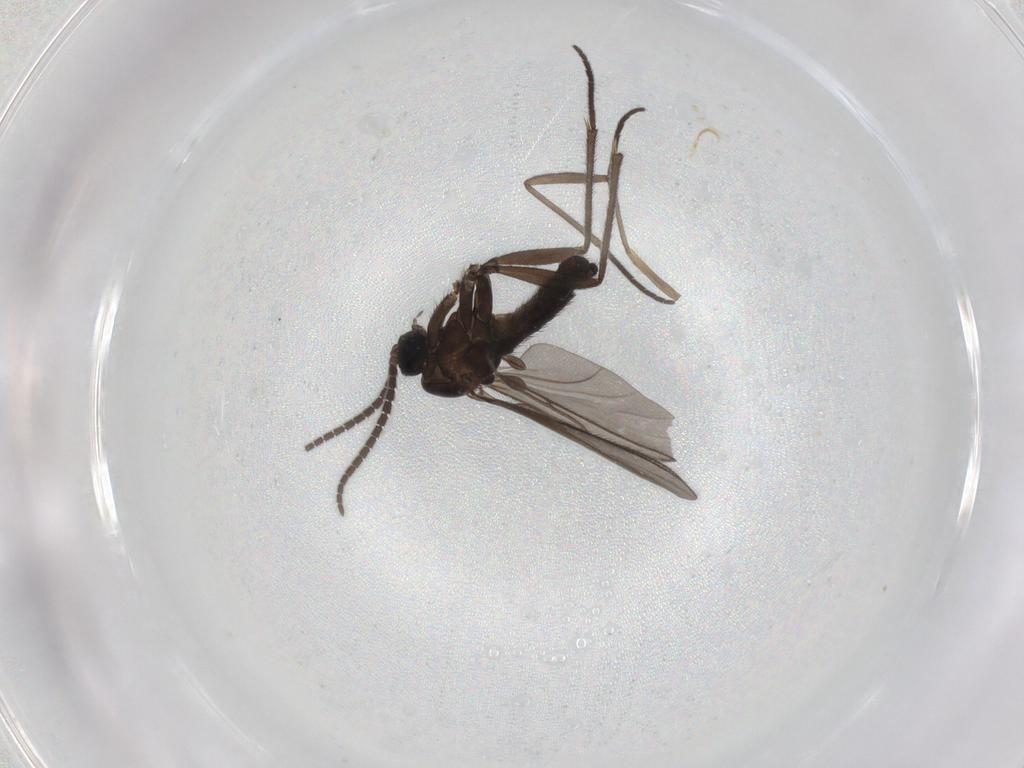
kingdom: Animalia
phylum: Arthropoda
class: Insecta
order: Diptera
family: Sciaridae
